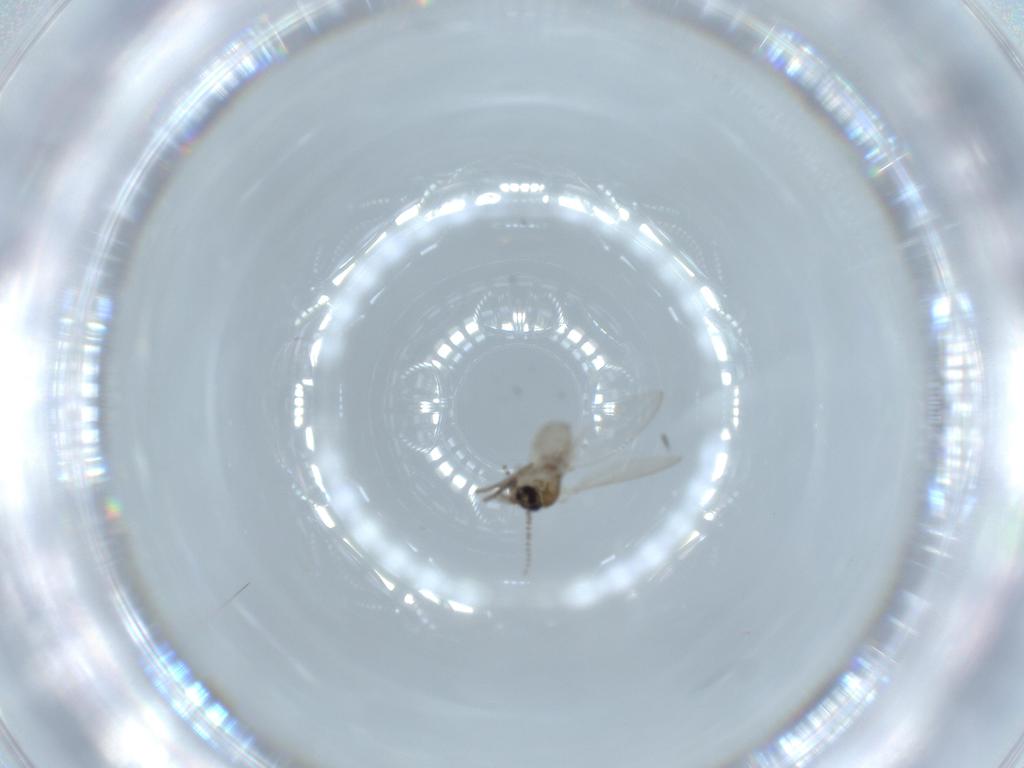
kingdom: Animalia
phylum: Arthropoda
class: Insecta
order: Diptera
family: Psychodidae
